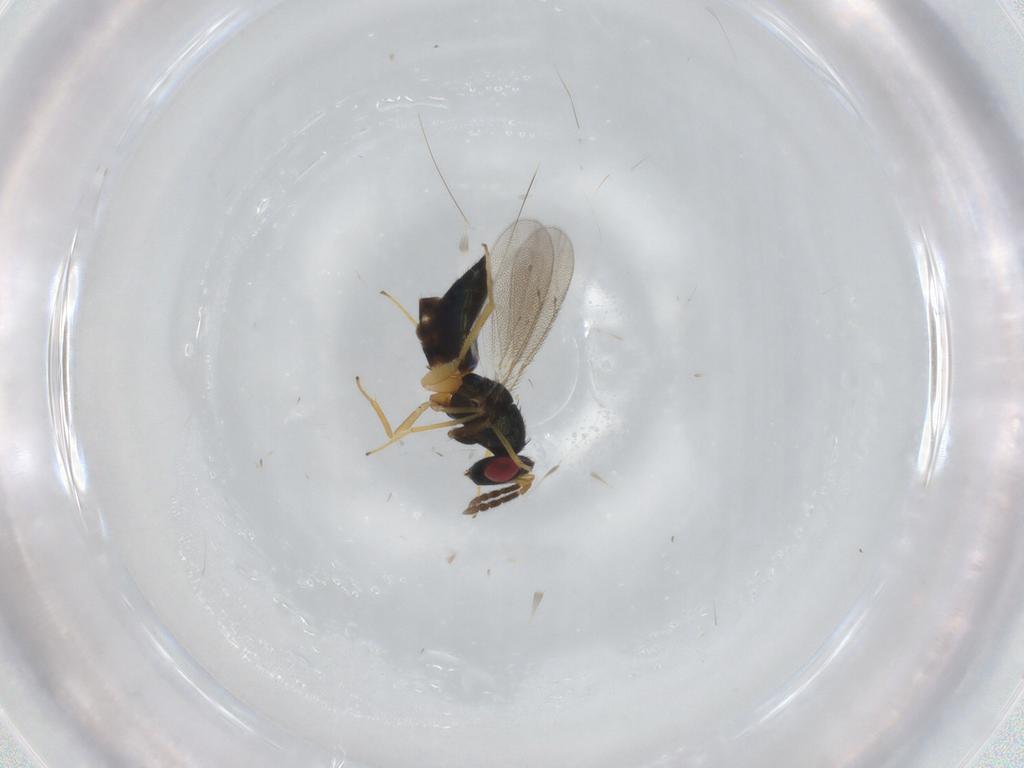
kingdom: Animalia
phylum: Arthropoda
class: Insecta
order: Hymenoptera
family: Eulophidae
